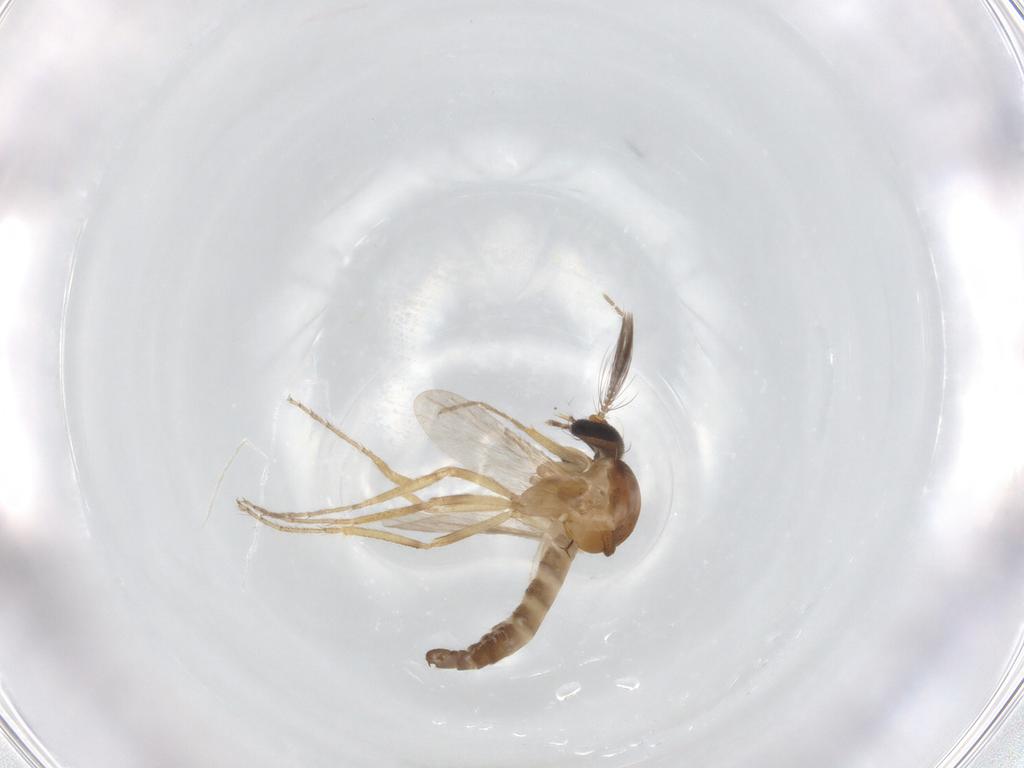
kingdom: Animalia
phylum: Arthropoda
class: Insecta
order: Diptera
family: Ceratopogonidae
